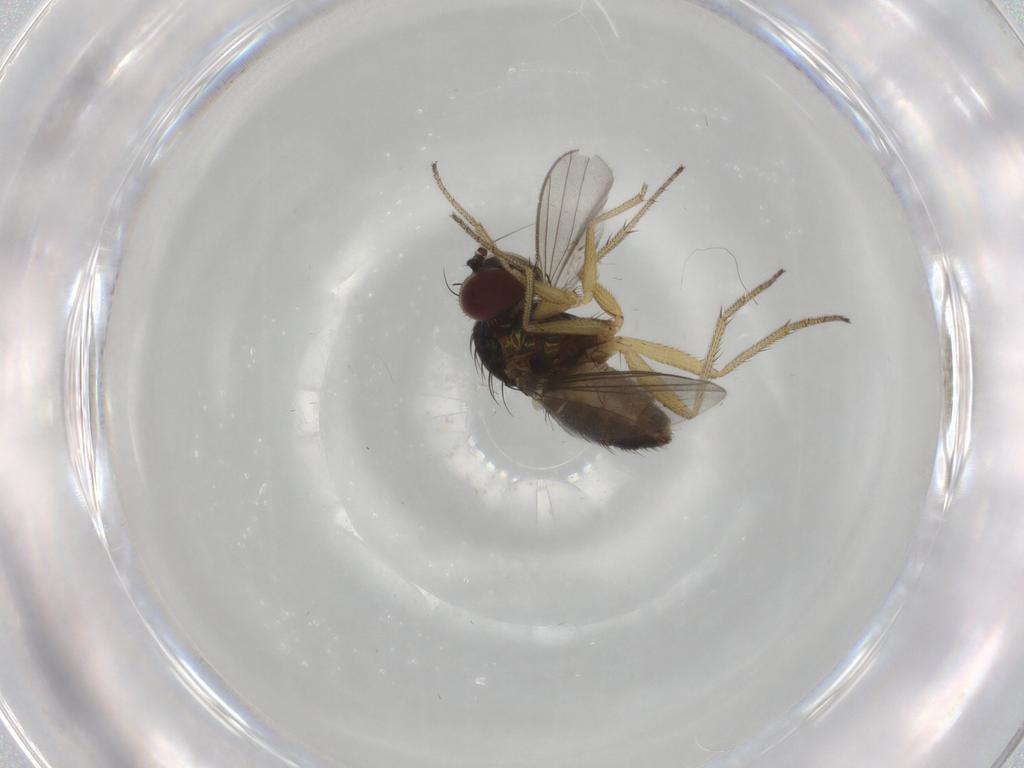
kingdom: Animalia
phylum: Arthropoda
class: Insecta
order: Diptera
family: Dolichopodidae
